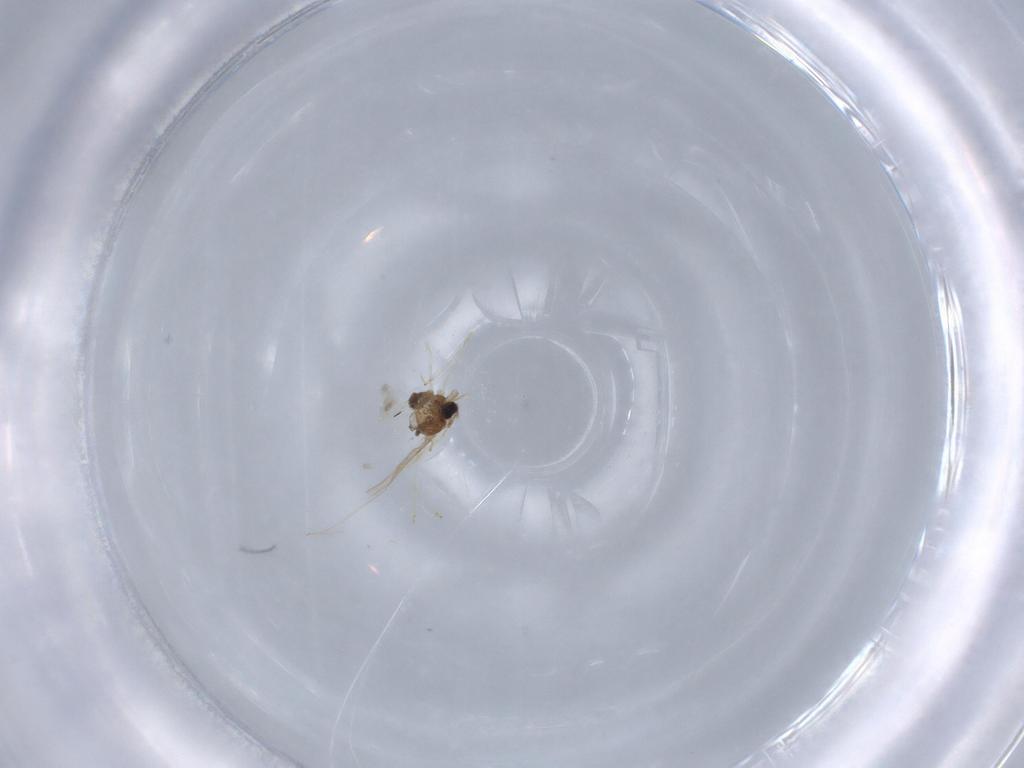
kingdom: Animalia
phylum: Arthropoda
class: Insecta
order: Diptera
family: Cecidomyiidae
